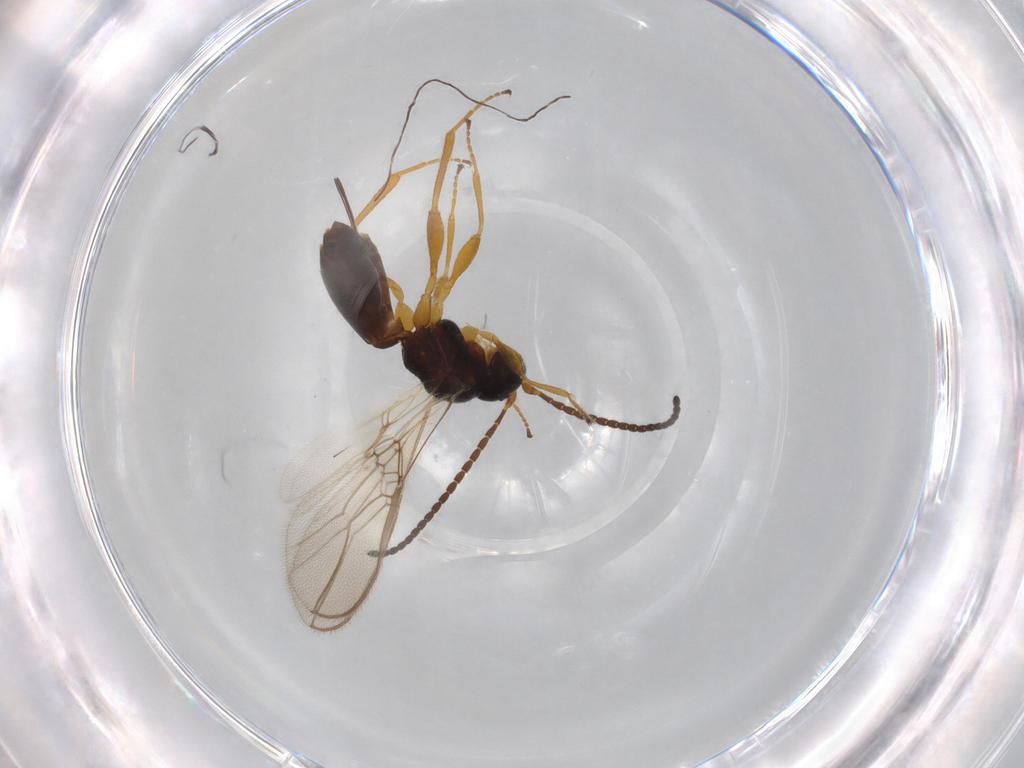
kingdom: Animalia
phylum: Arthropoda
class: Insecta
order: Hymenoptera
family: Braconidae
